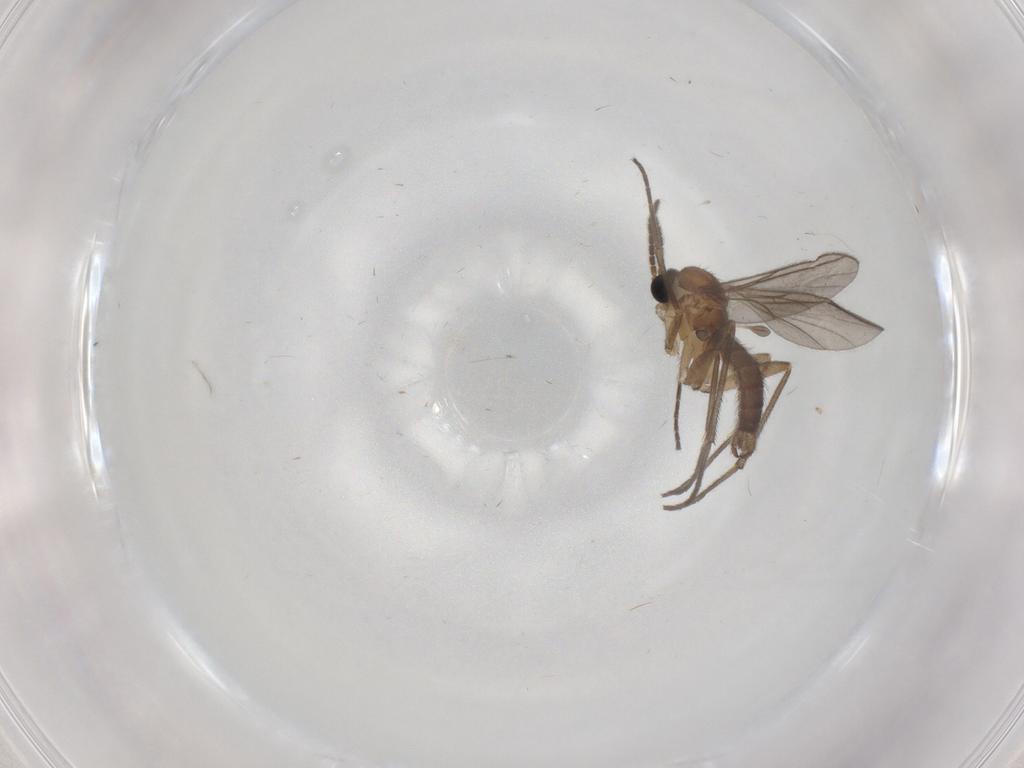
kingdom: Animalia
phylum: Arthropoda
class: Insecta
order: Diptera
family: Sciaridae
